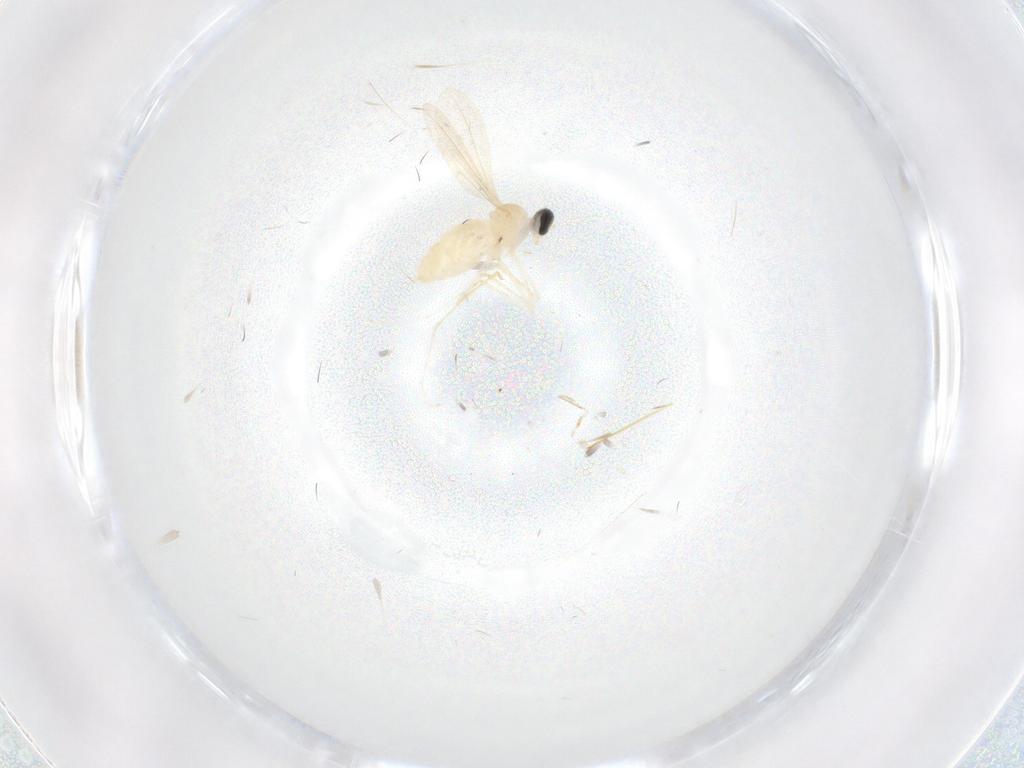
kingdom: Animalia
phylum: Arthropoda
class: Insecta
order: Diptera
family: Cecidomyiidae
